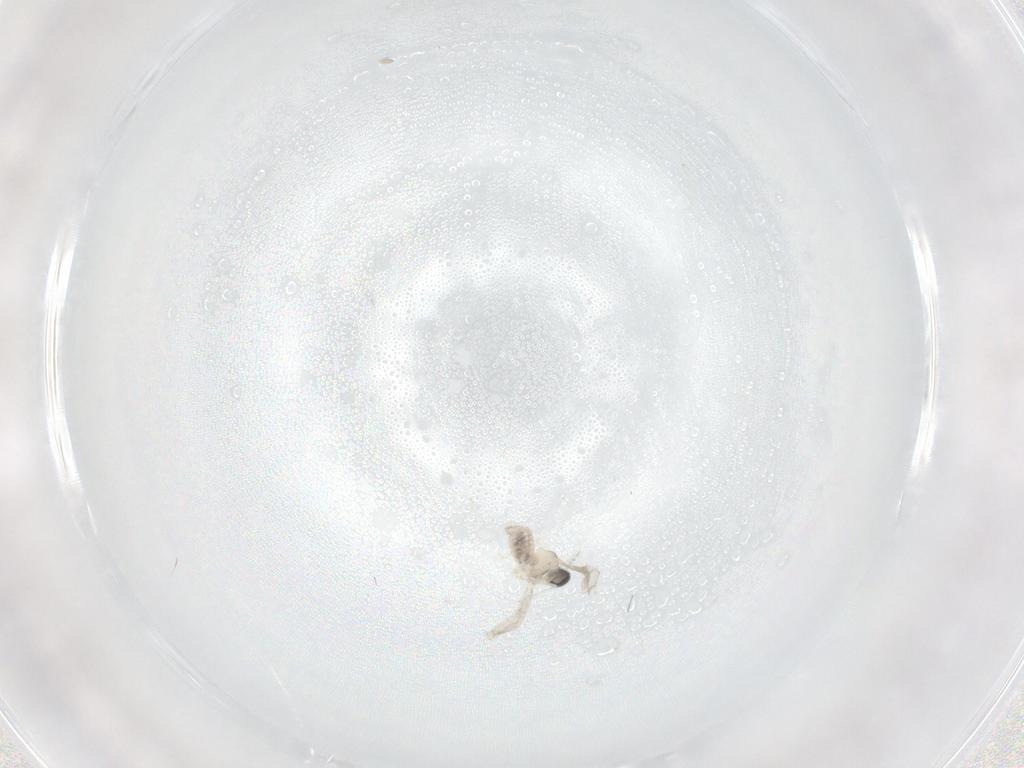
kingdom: Animalia
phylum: Arthropoda
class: Insecta
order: Diptera
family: Cecidomyiidae
